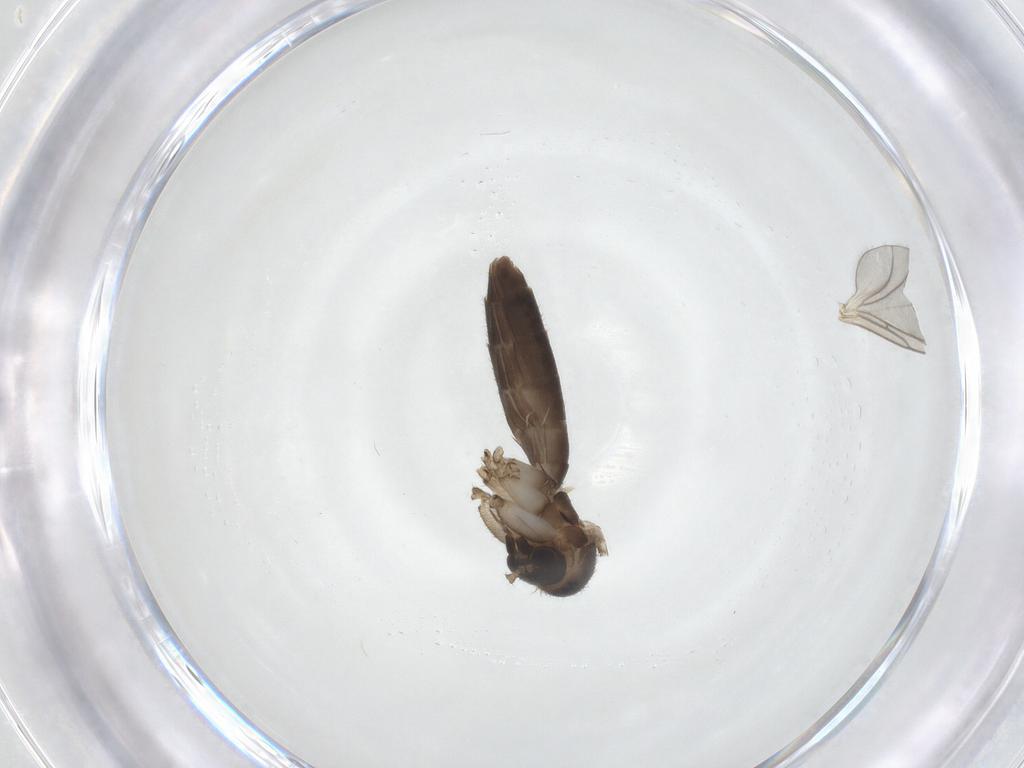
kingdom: Animalia
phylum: Arthropoda
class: Insecta
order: Diptera
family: Mycetophilidae
